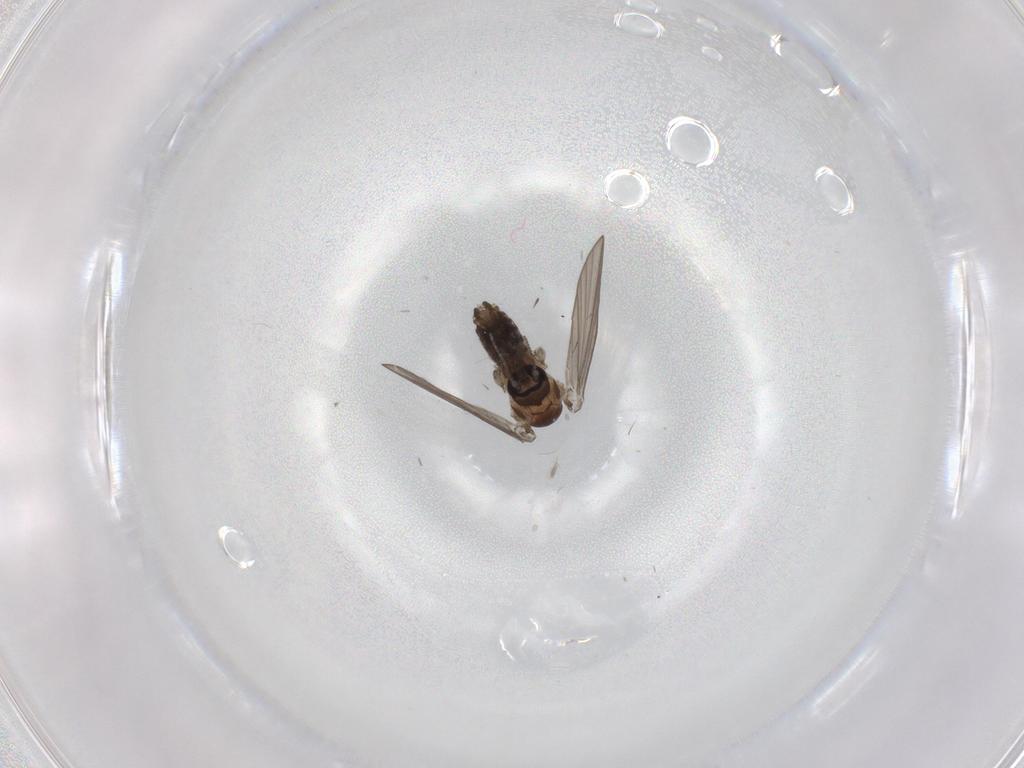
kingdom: Animalia
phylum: Arthropoda
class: Insecta
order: Diptera
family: Chironomidae
